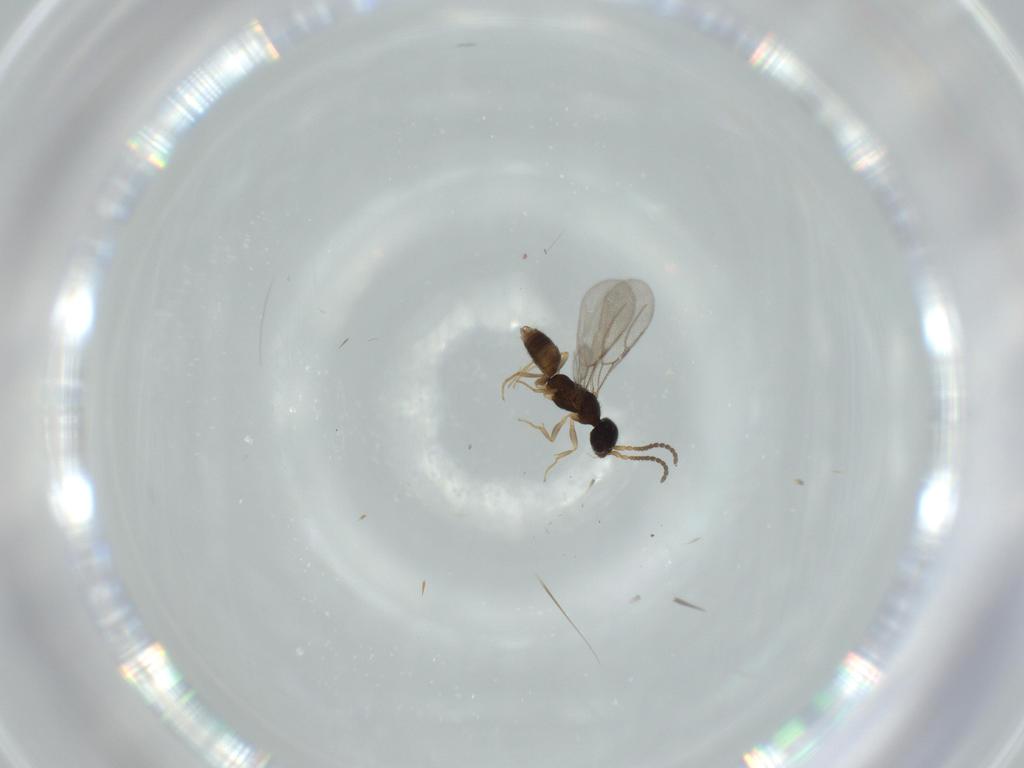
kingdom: Animalia
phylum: Arthropoda
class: Insecta
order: Hymenoptera
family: Bethylidae
